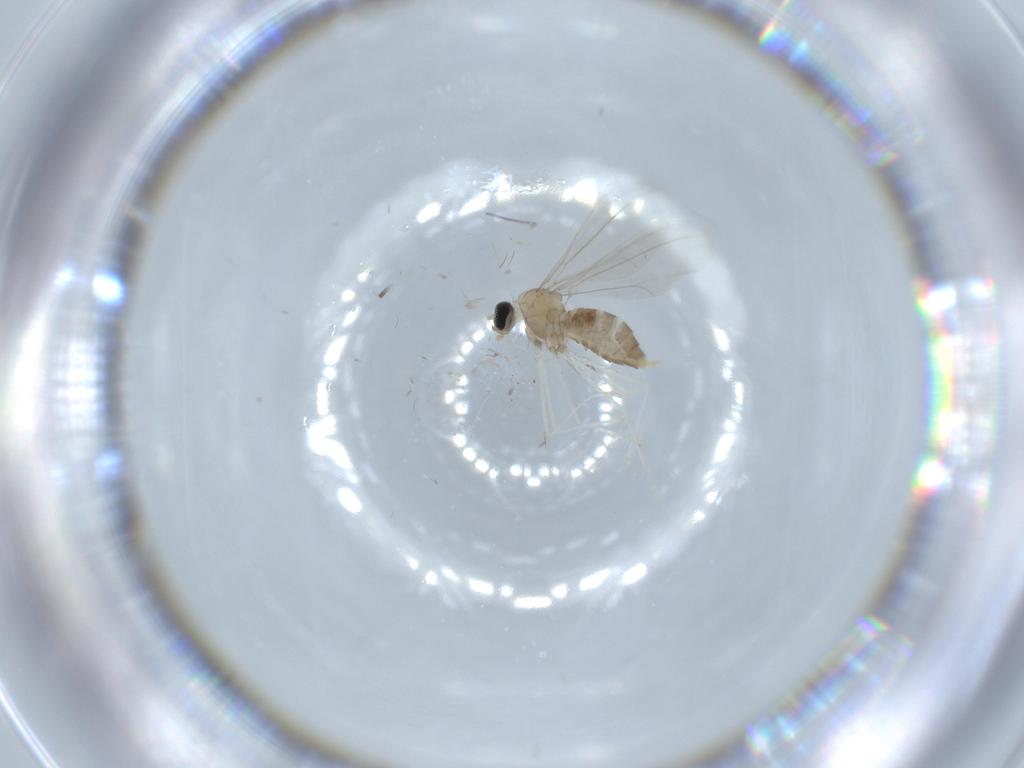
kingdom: Animalia
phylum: Arthropoda
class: Insecta
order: Diptera
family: Cecidomyiidae
